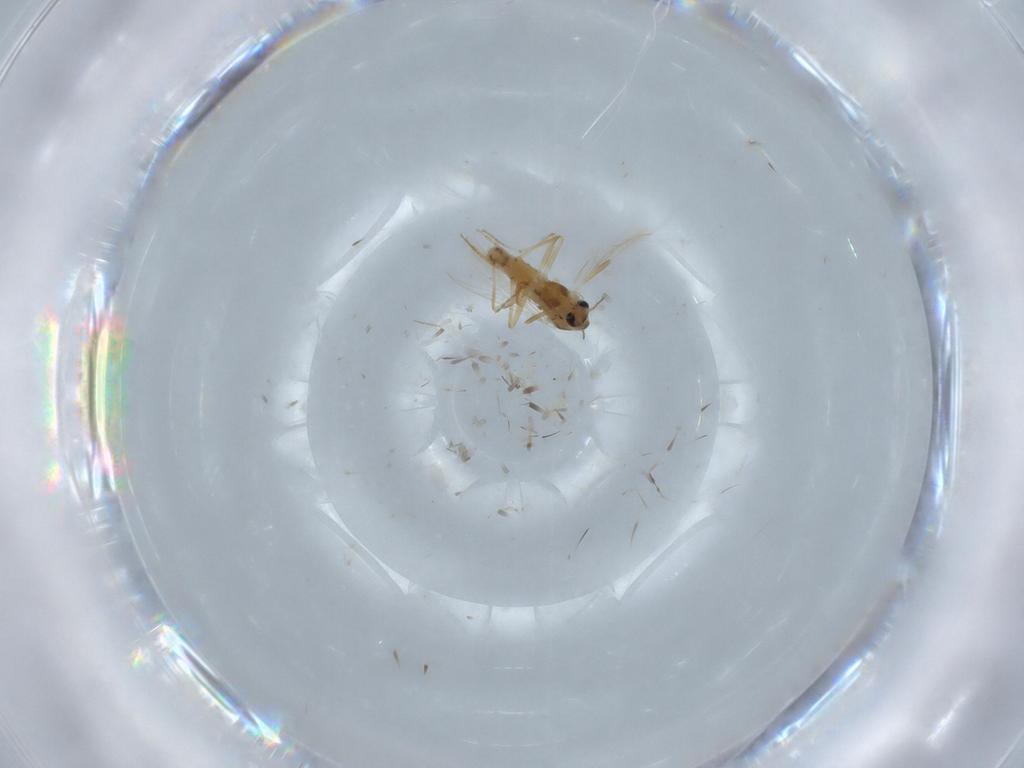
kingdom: Animalia
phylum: Arthropoda
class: Insecta
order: Diptera
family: Chironomidae
